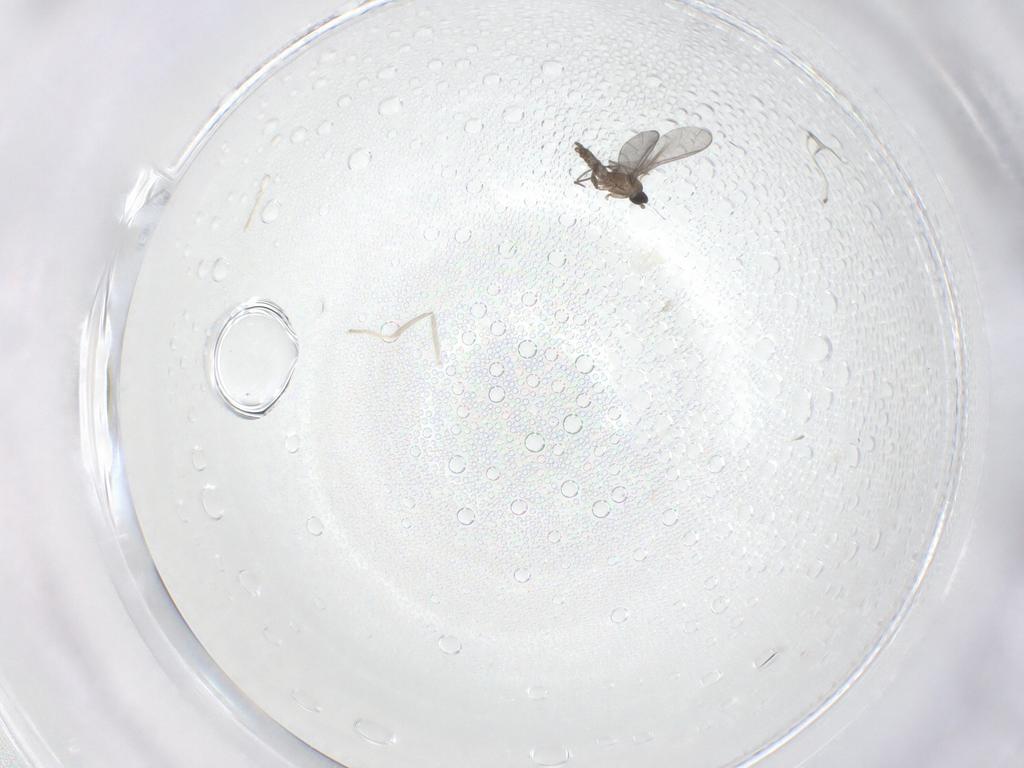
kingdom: Animalia
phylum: Arthropoda
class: Insecta
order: Diptera
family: Sciaridae
